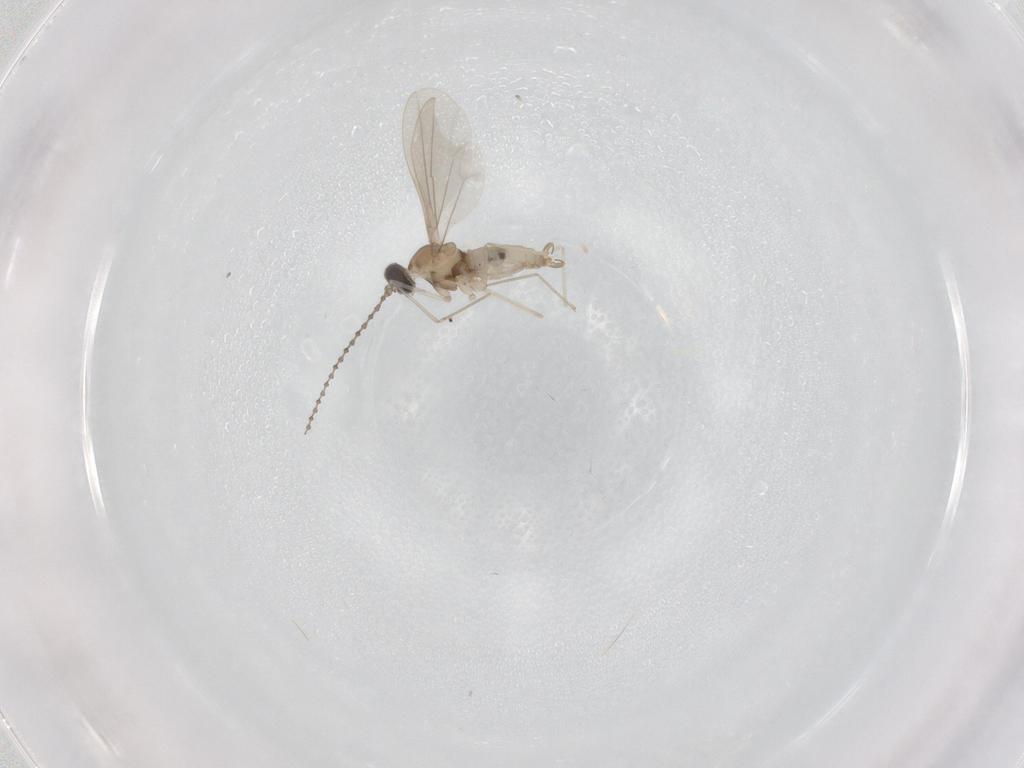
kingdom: Animalia
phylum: Arthropoda
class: Insecta
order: Diptera
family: Cecidomyiidae
